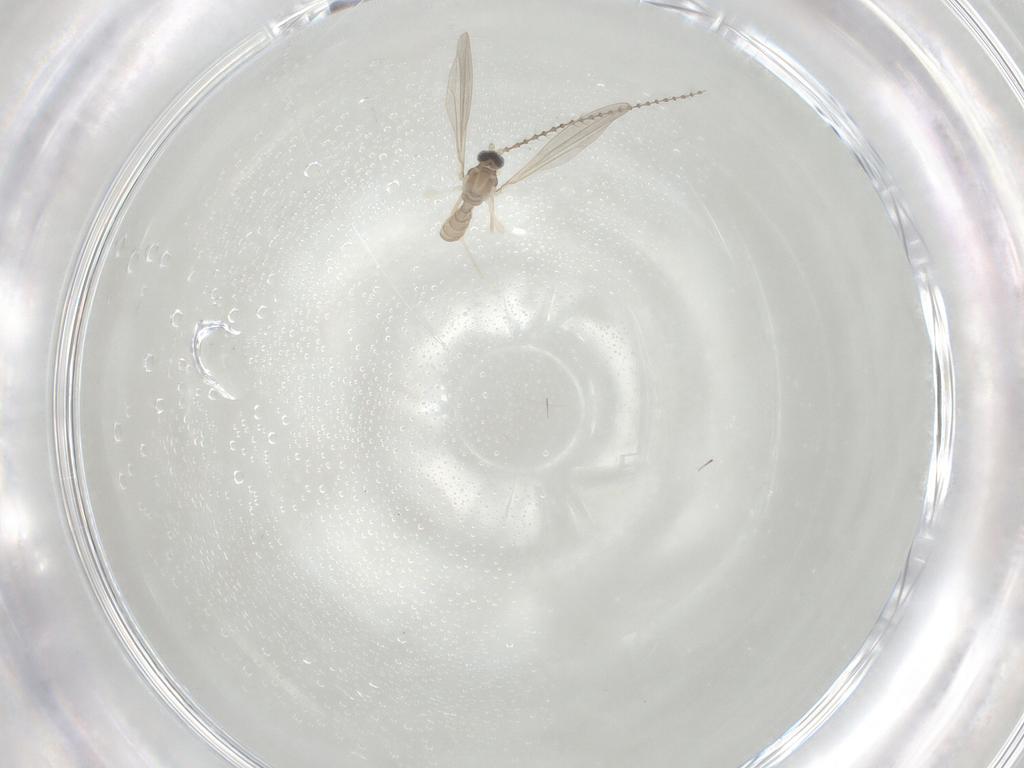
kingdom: Animalia
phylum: Arthropoda
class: Insecta
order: Diptera
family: Cecidomyiidae
